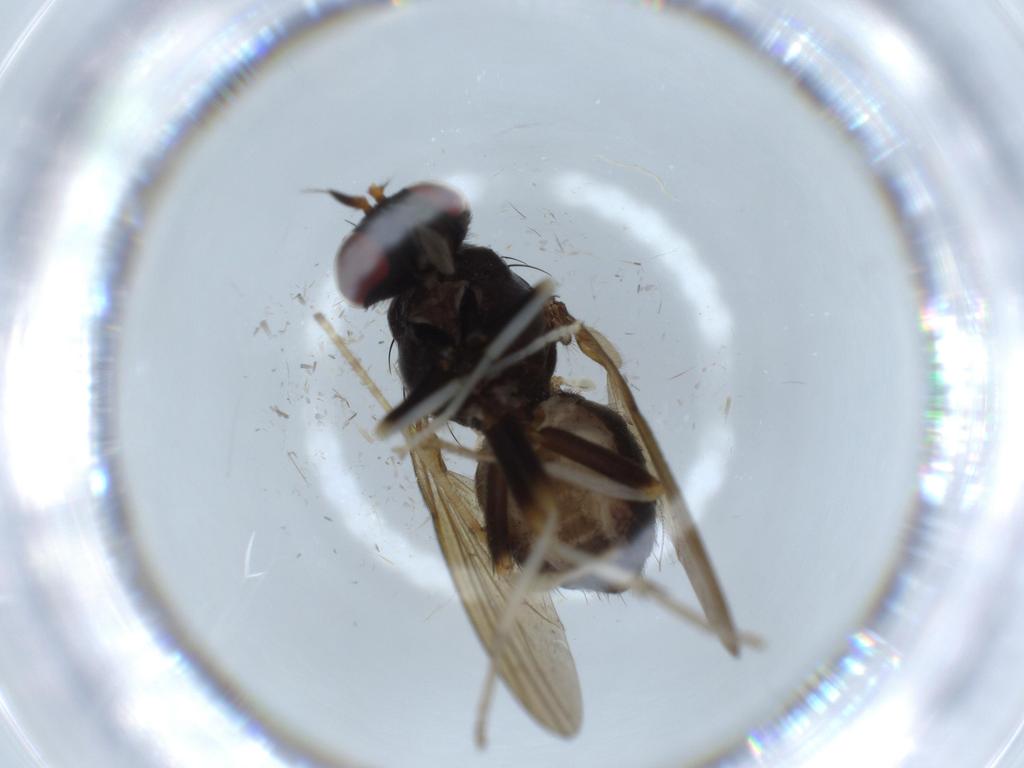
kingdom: Animalia
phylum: Arthropoda
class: Insecta
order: Diptera
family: Lauxaniidae
